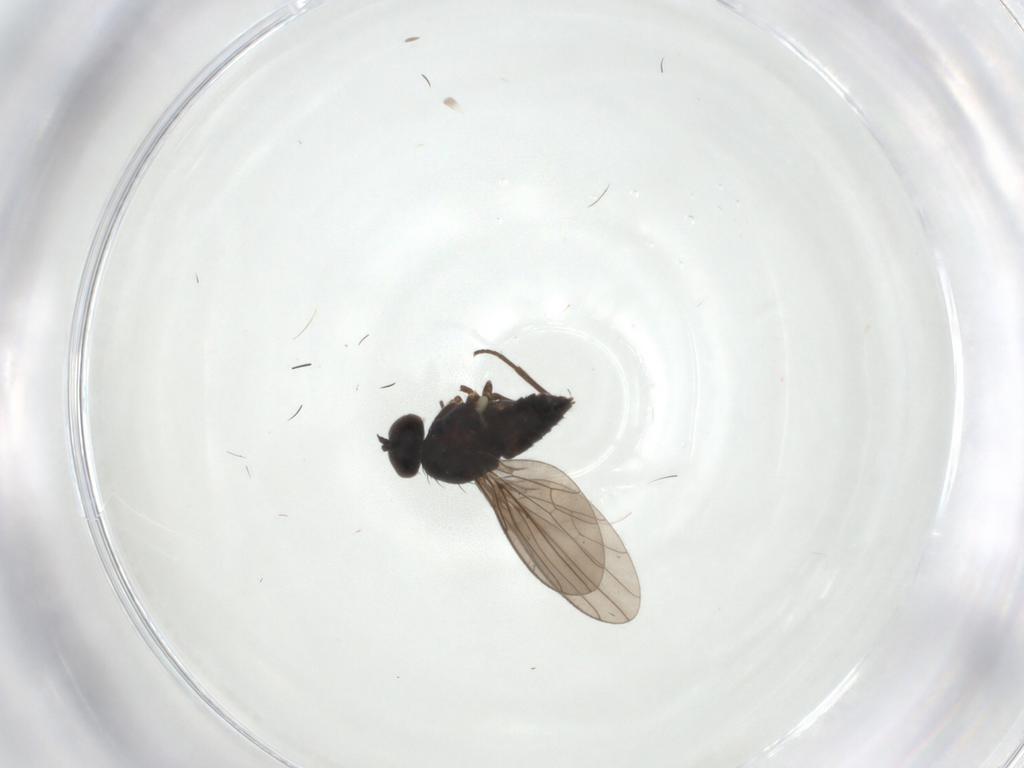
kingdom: Animalia
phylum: Arthropoda
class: Insecta
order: Diptera
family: Dolichopodidae
